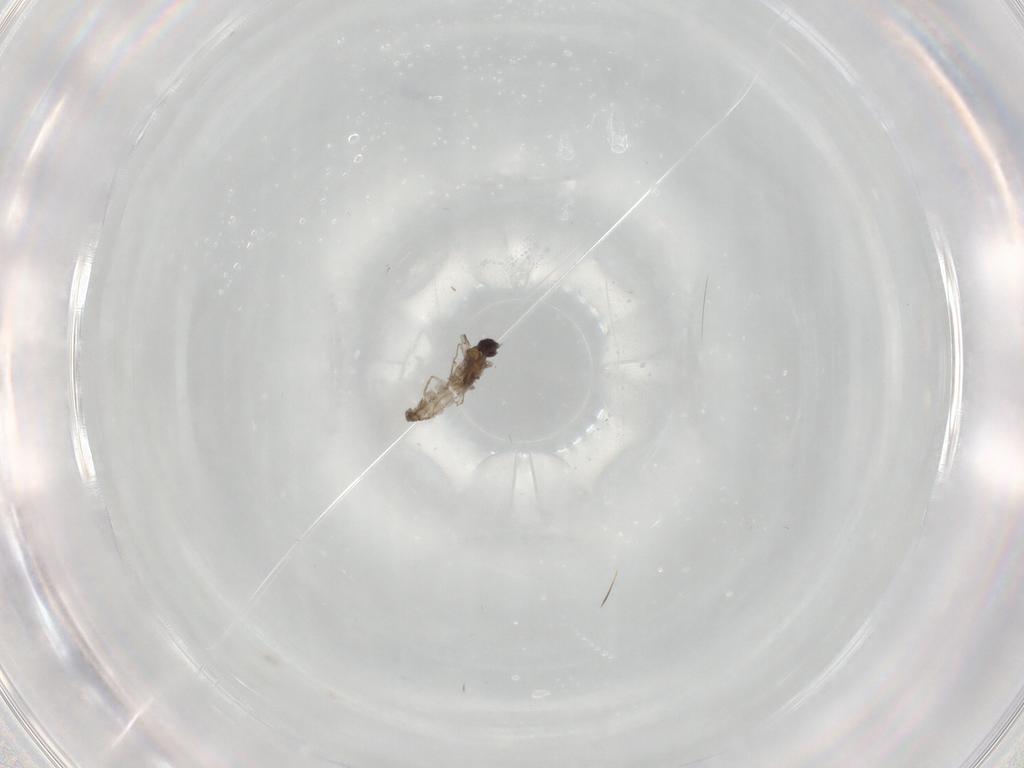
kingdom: Animalia
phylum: Arthropoda
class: Insecta
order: Diptera
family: Cecidomyiidae
